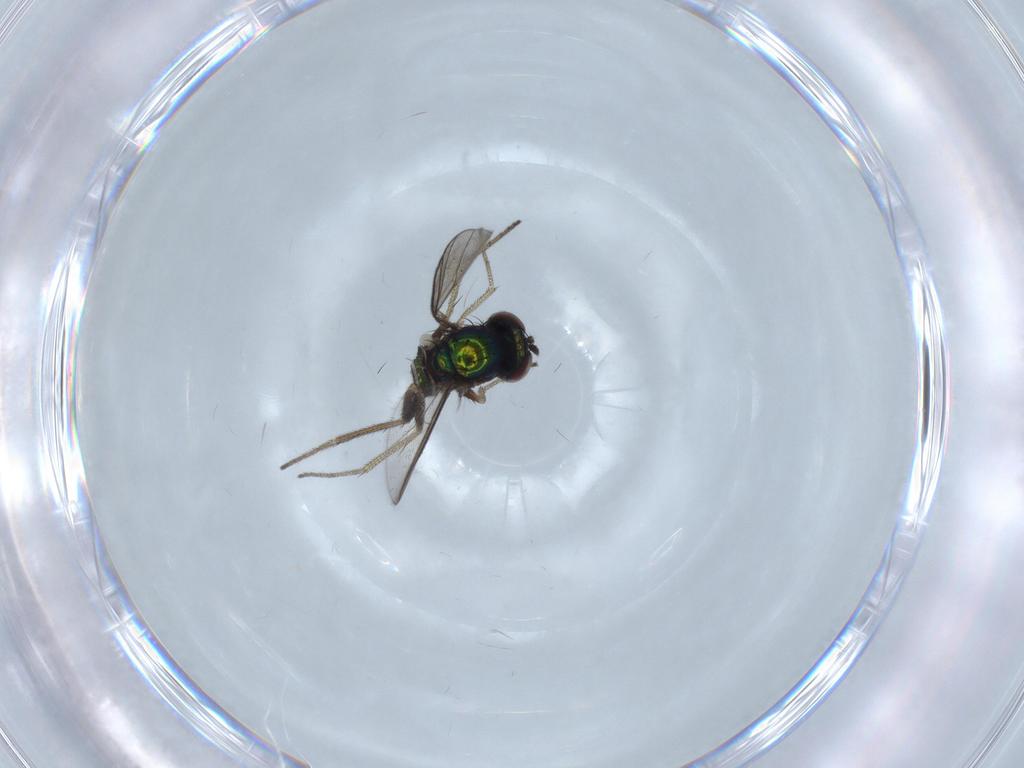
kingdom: Animalia
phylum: Arthropoda
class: Insecta
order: Diptera
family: Dolichopodidae
